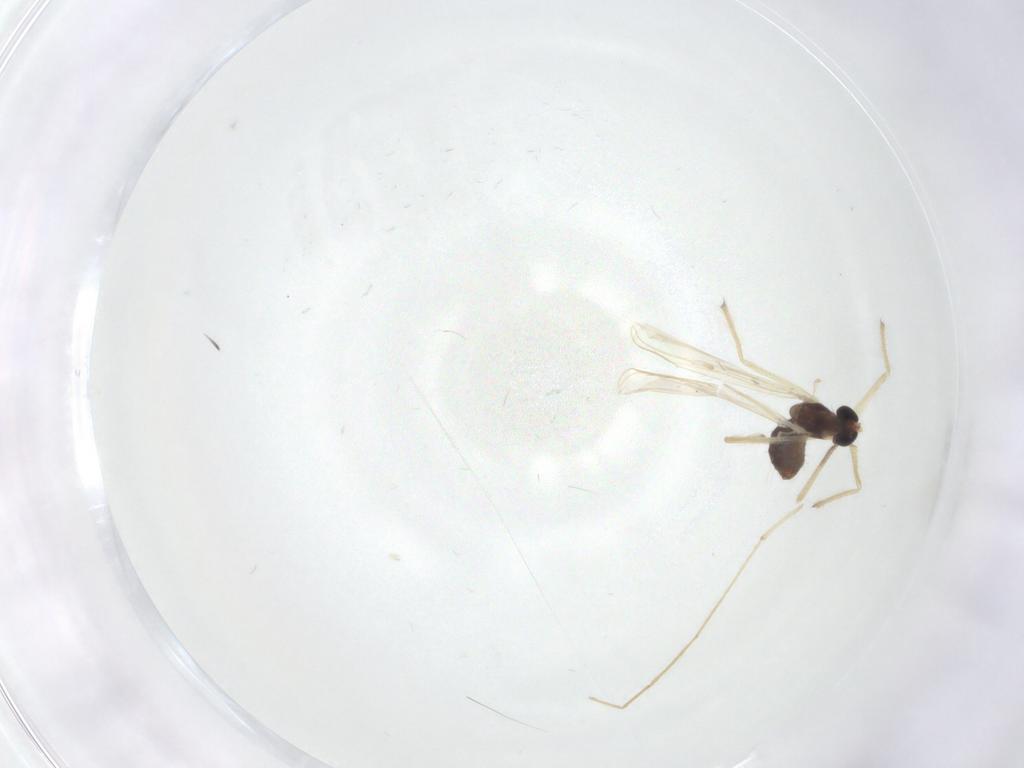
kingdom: Animalia
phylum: Arthropoda
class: Insecta
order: Diptera
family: Chironomidae
